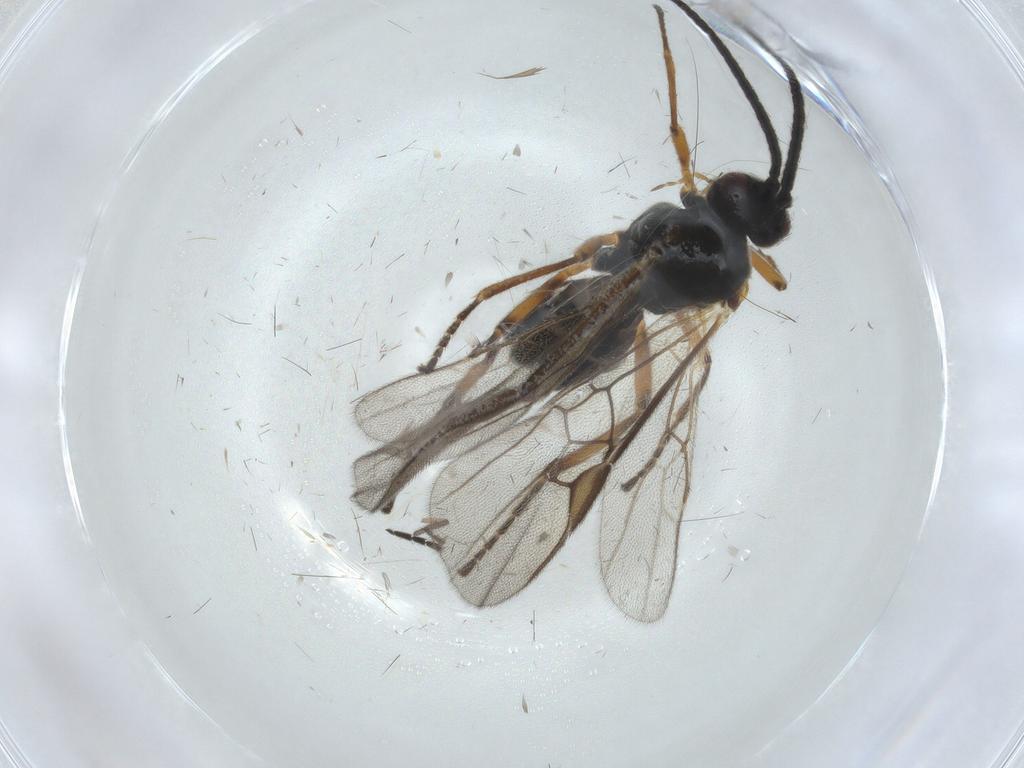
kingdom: Animalia
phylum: Arthropoda
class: Insecta
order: Hymenoptera
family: Braconidae
